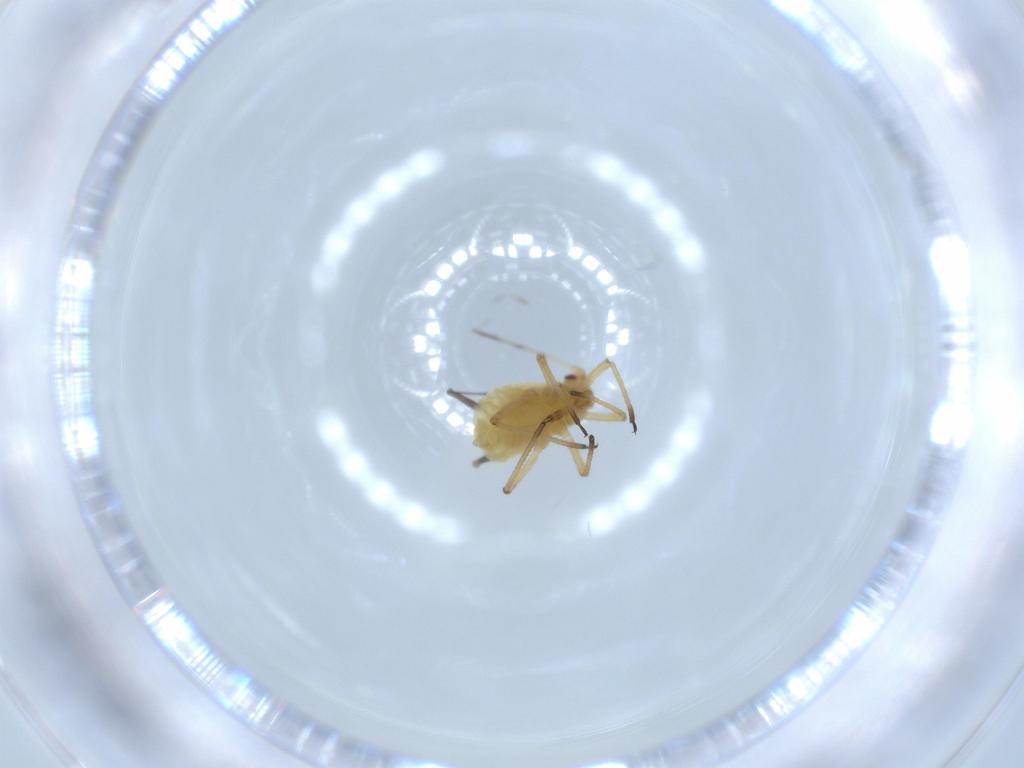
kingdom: Animalia
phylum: Arthropoda
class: Insecta
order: Hemiptera
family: Aphididae
